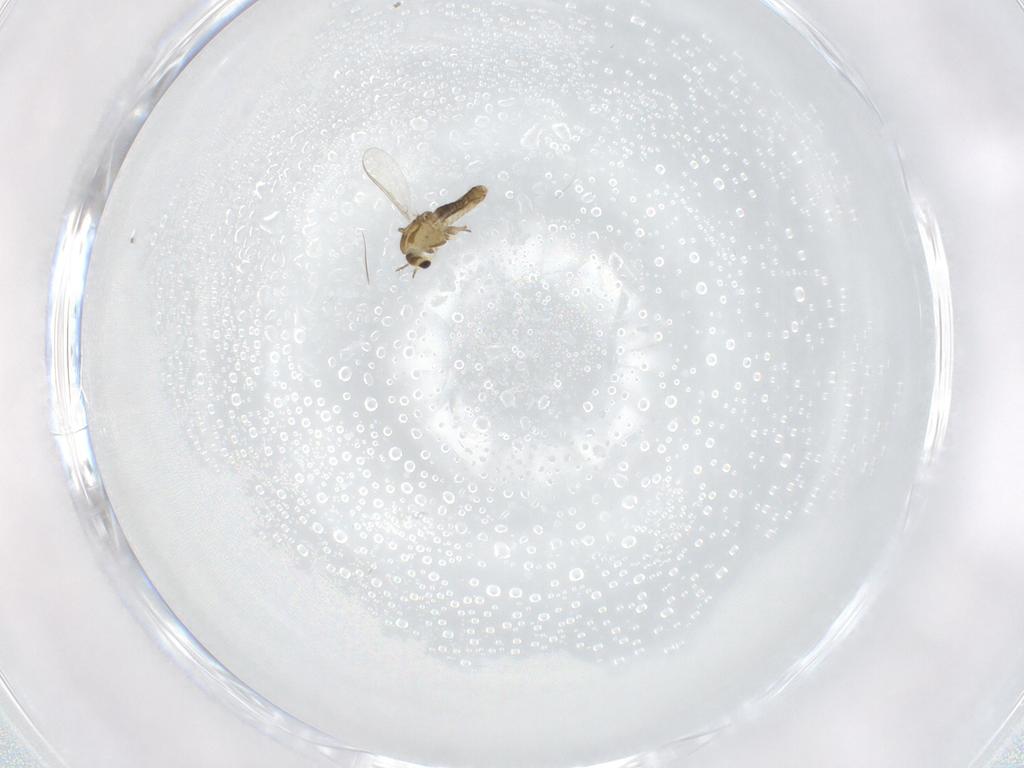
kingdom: Animalia
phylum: Arthropoda
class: Insecta
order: Diptera
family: Chironomidae
